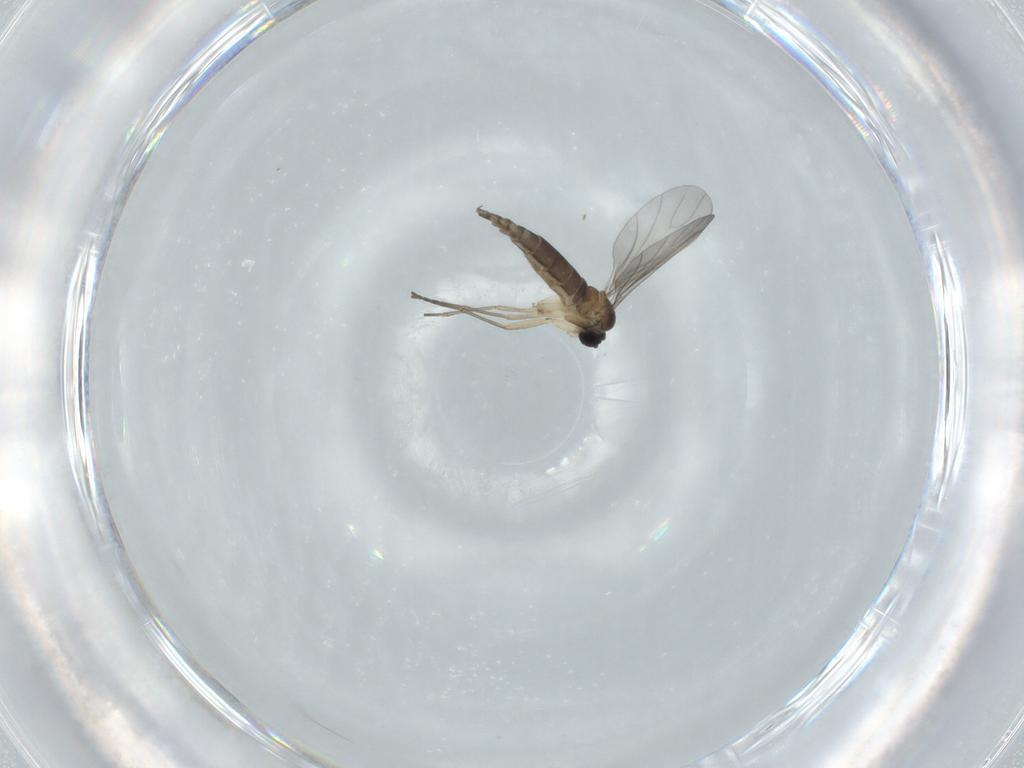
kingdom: Animalia
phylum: Arthropoda
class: Insecta
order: Diptera
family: Sciaridae
